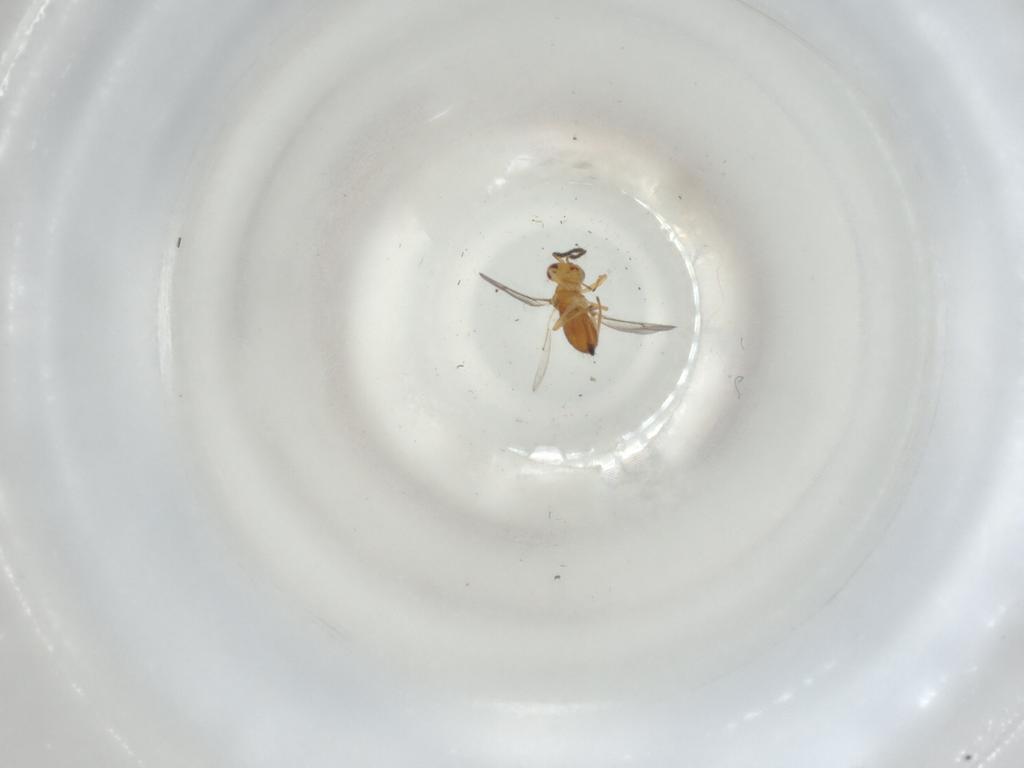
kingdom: Animalia
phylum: Arthropoda
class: Insecta
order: Hymenoptera
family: Eulophidae
